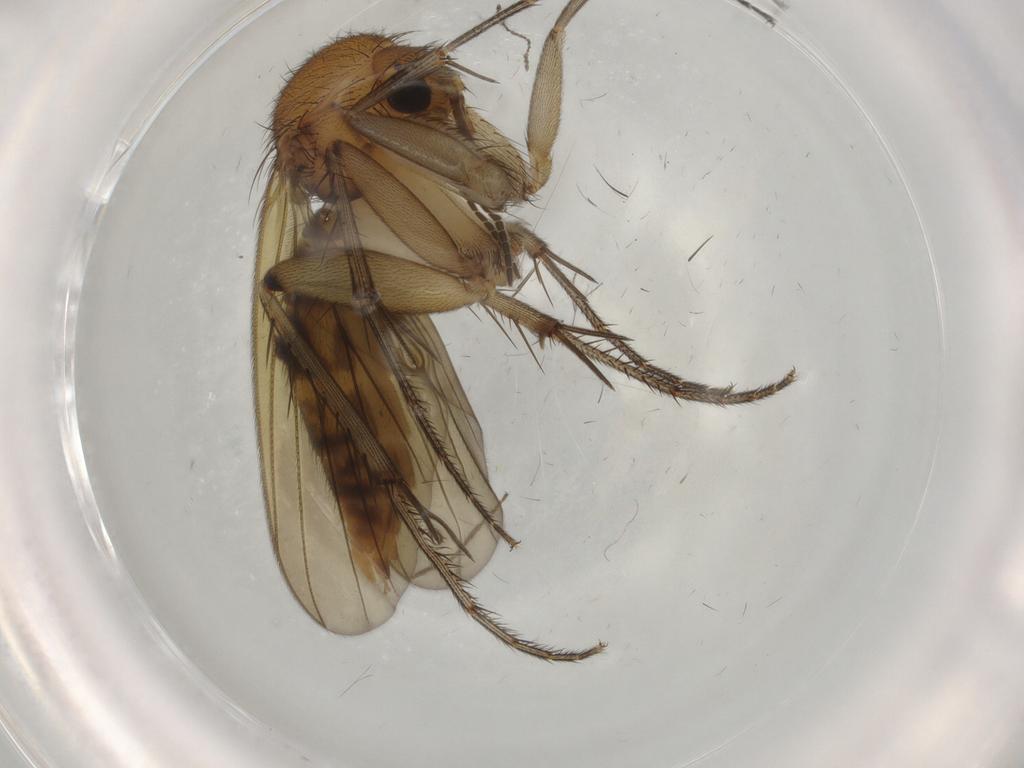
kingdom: Animalia
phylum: Arthropoda
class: Insecta
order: Diptera
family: Mycetophilidae
